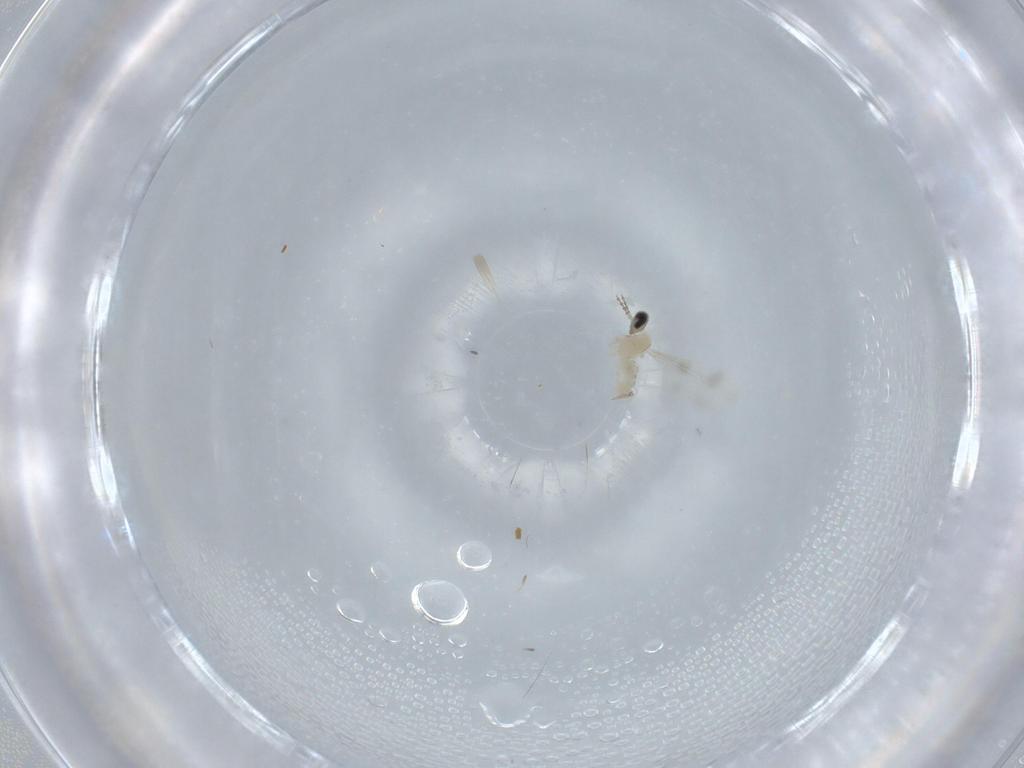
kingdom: Animalia
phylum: Arthropoda
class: Insecta
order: Diptera
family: Cecidomyiidae
